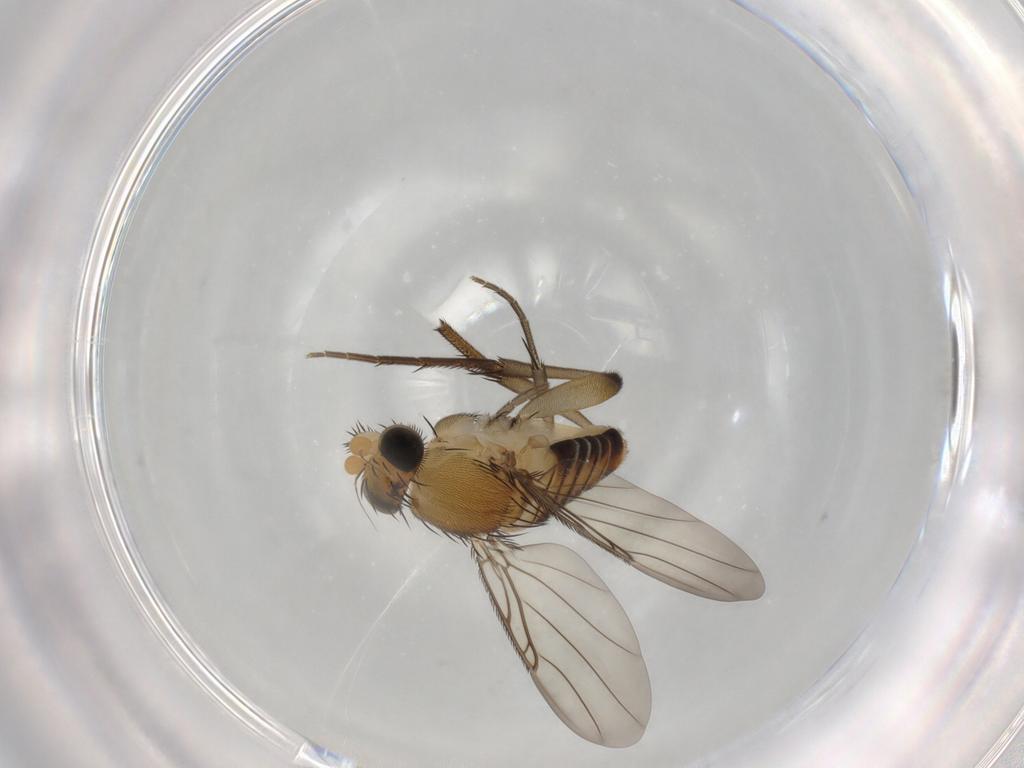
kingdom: Animalia
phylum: Arthropoda
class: Insecta
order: Diptera
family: Phoridae
